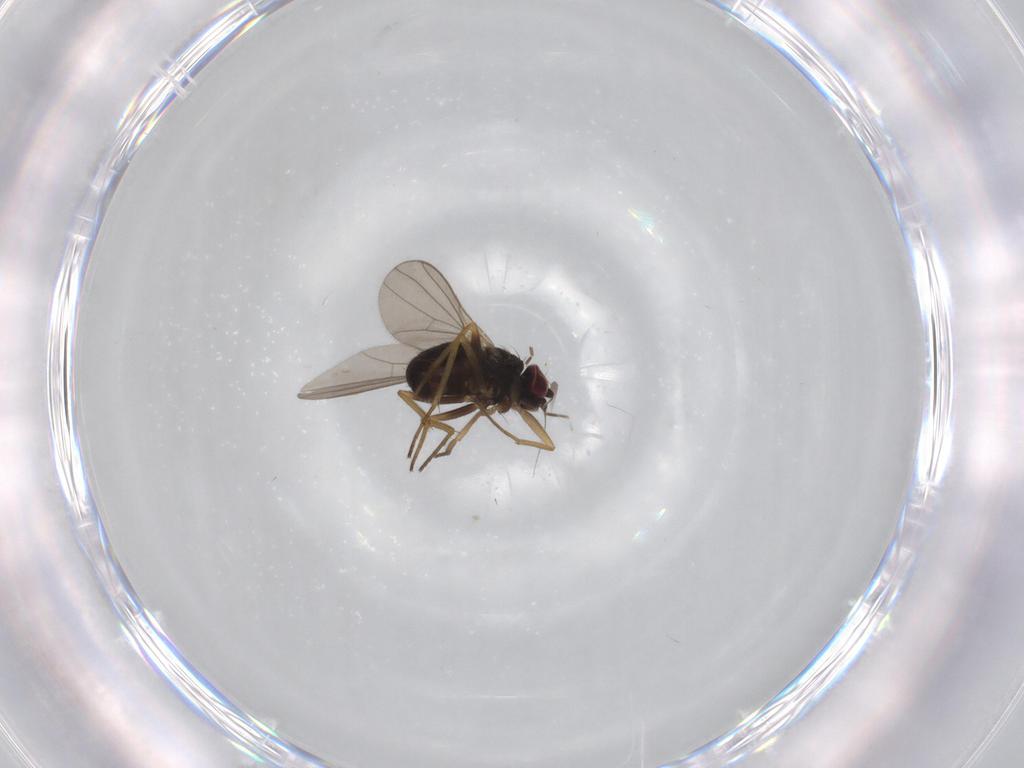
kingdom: Animalia
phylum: Arthropoda
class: Insecta
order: Diptera
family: Dolichopodidae
